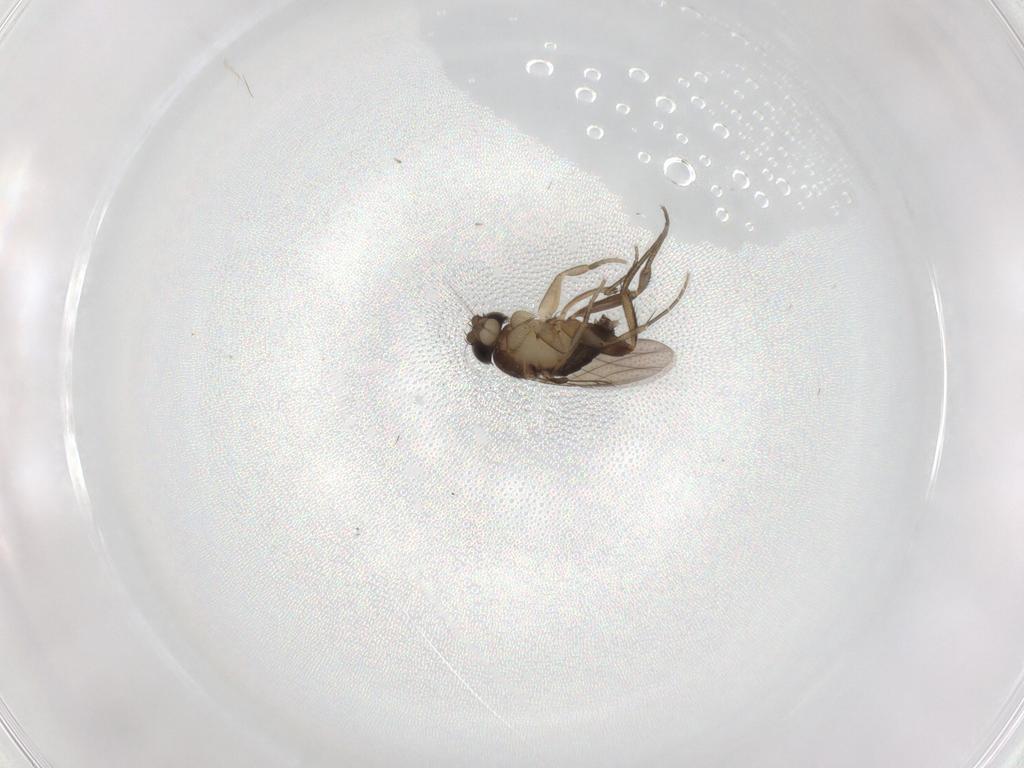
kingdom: Animalia
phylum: Arthropoda
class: Insecta
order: Diptera
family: Phoridae
